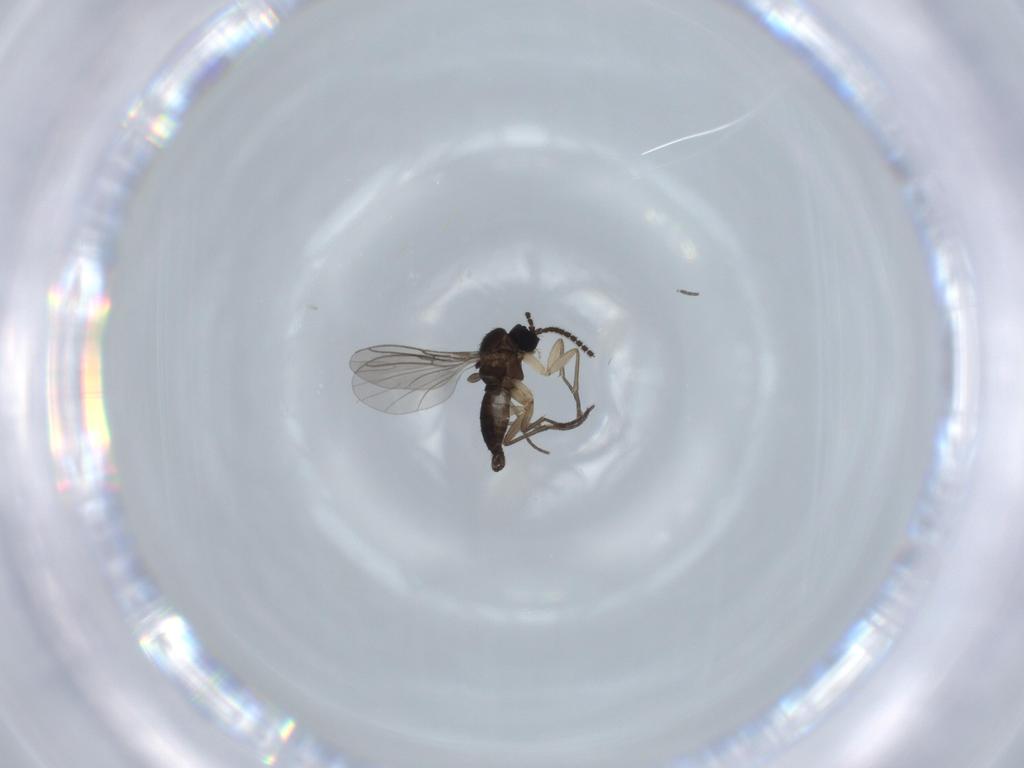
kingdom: Animalia
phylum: Arthropoda
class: Insecta
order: Diptera
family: Sciaridae
